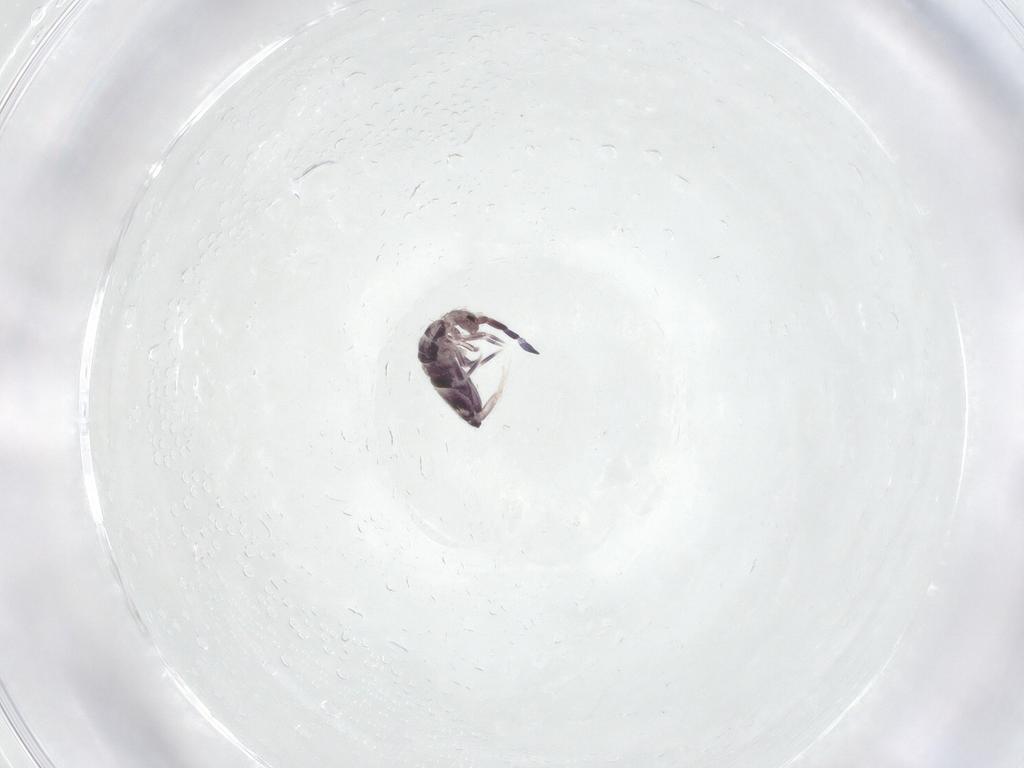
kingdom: Animalia
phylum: Arthropoda
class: Collembola
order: Entomobryomorpha
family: Entomobryidae
